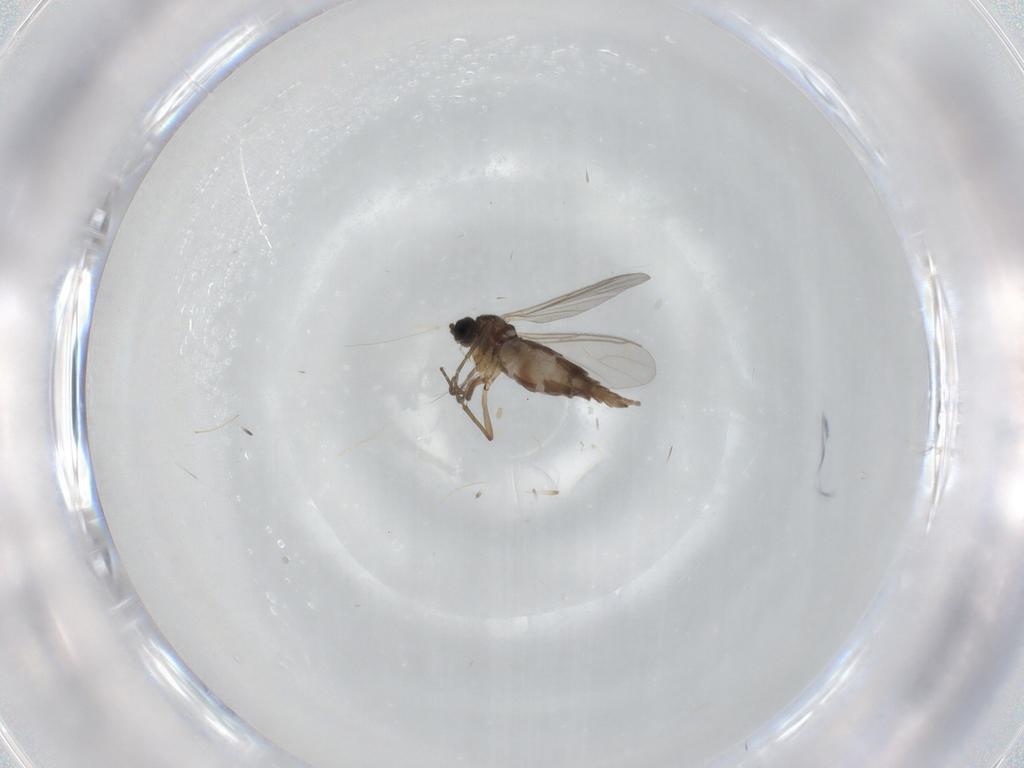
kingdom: Animalia
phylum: Arthropoda
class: Insecta
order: Diptera
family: Sciaridae
